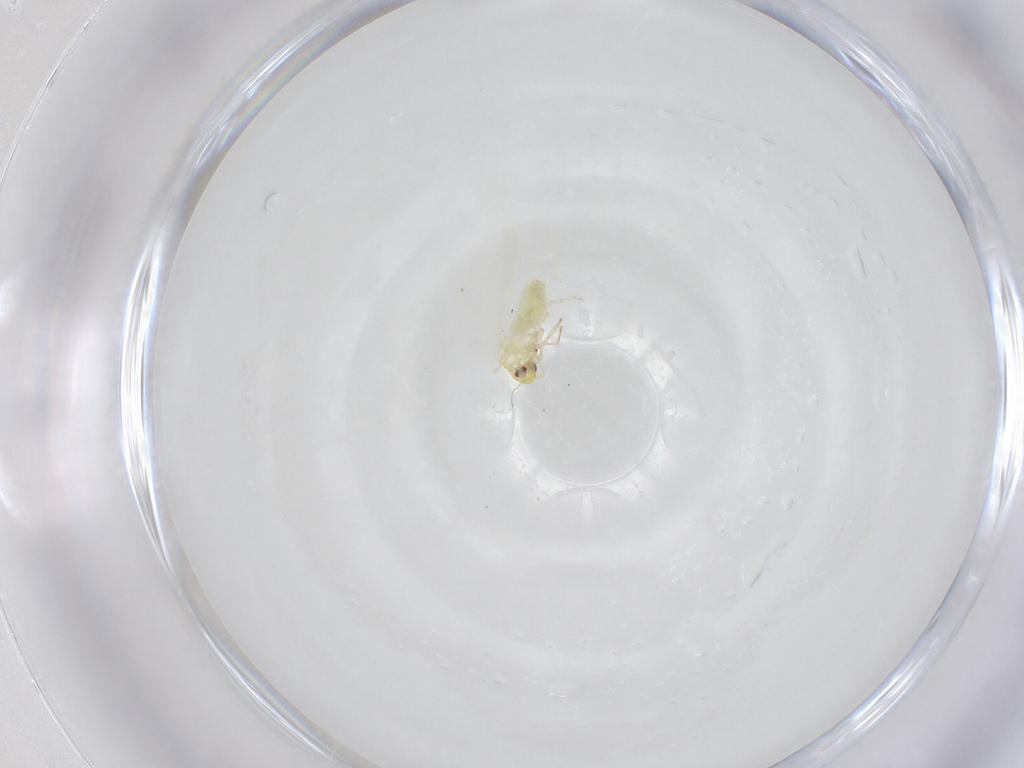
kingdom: Animalia
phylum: Arthropoda
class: Insecta
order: Hemiptera
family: Aleyrodidae
